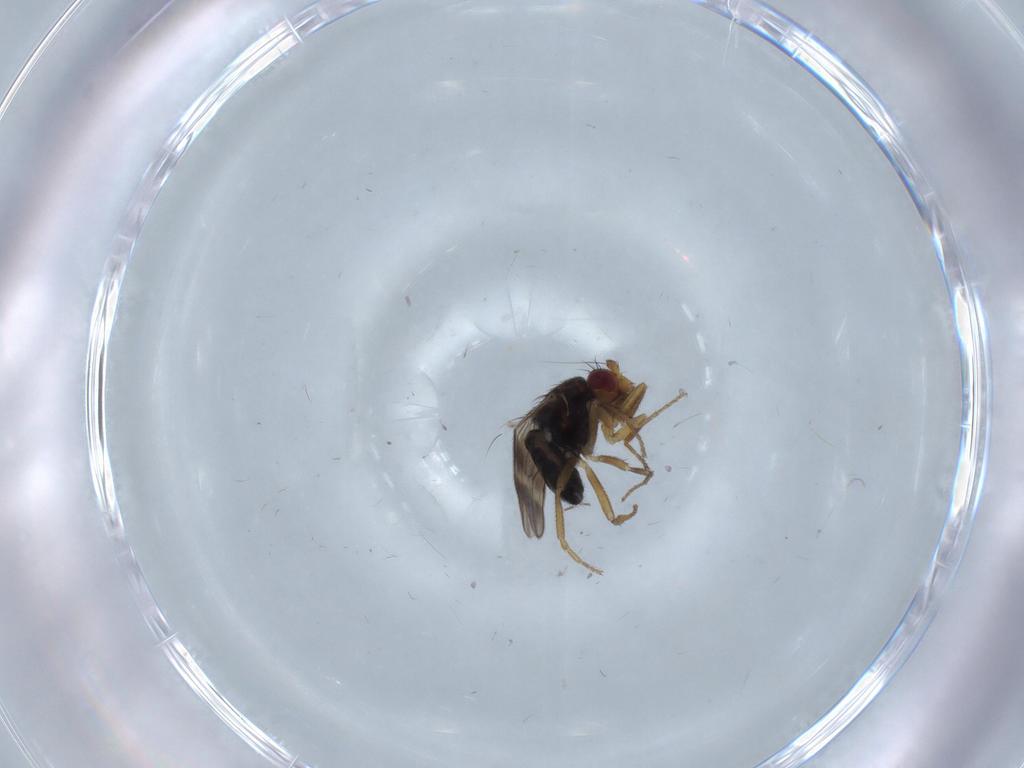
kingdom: Animalia
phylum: Arthropoda
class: Insecta
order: Diptera
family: Sphaeroceridae
